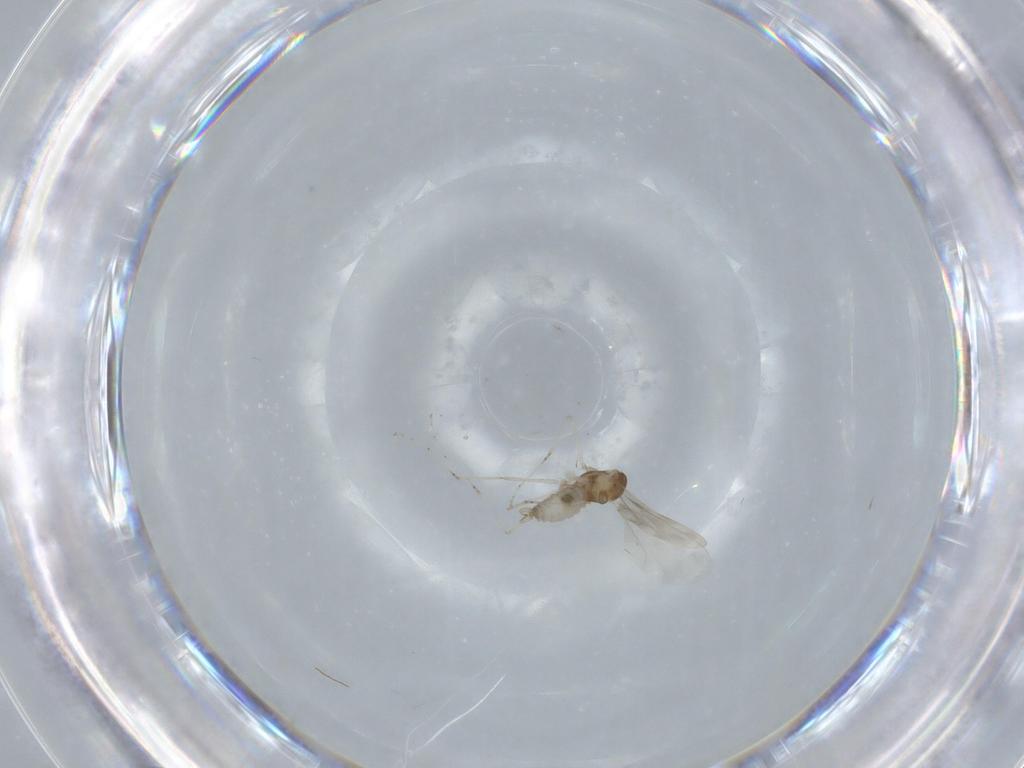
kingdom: Animalia
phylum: Arthropoda
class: Insecta
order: Diptera
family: Cecidomyiidae
